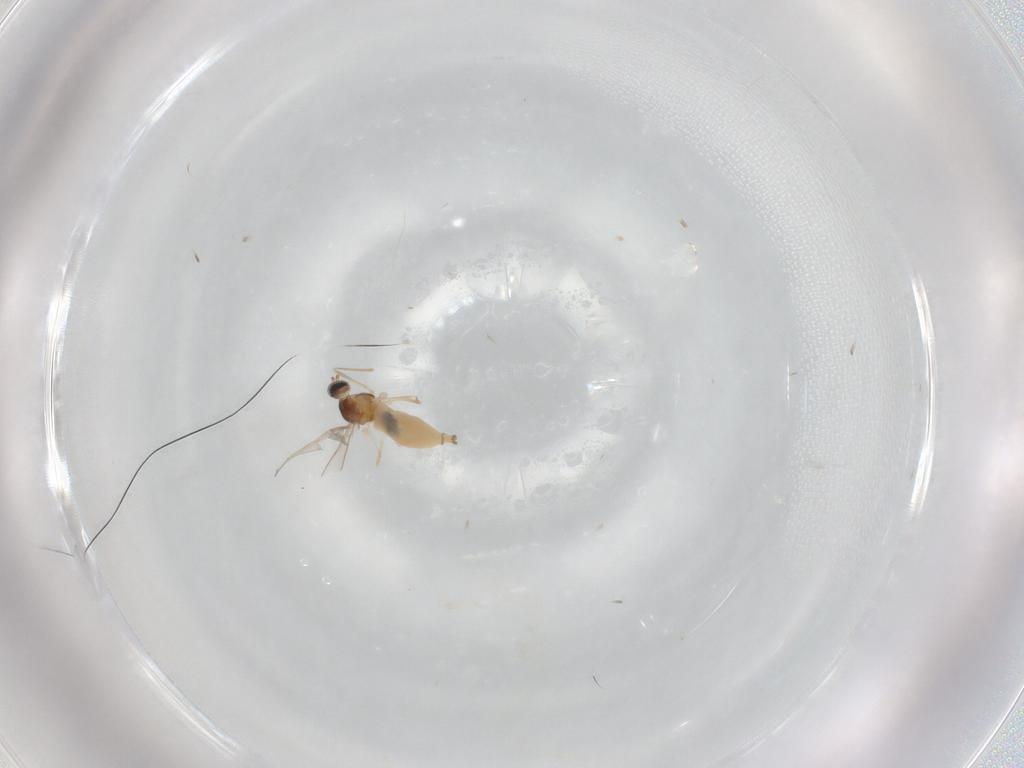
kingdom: Animalia
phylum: Arthropoda
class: Insecta
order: Diptera
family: Cecidomyiidae
